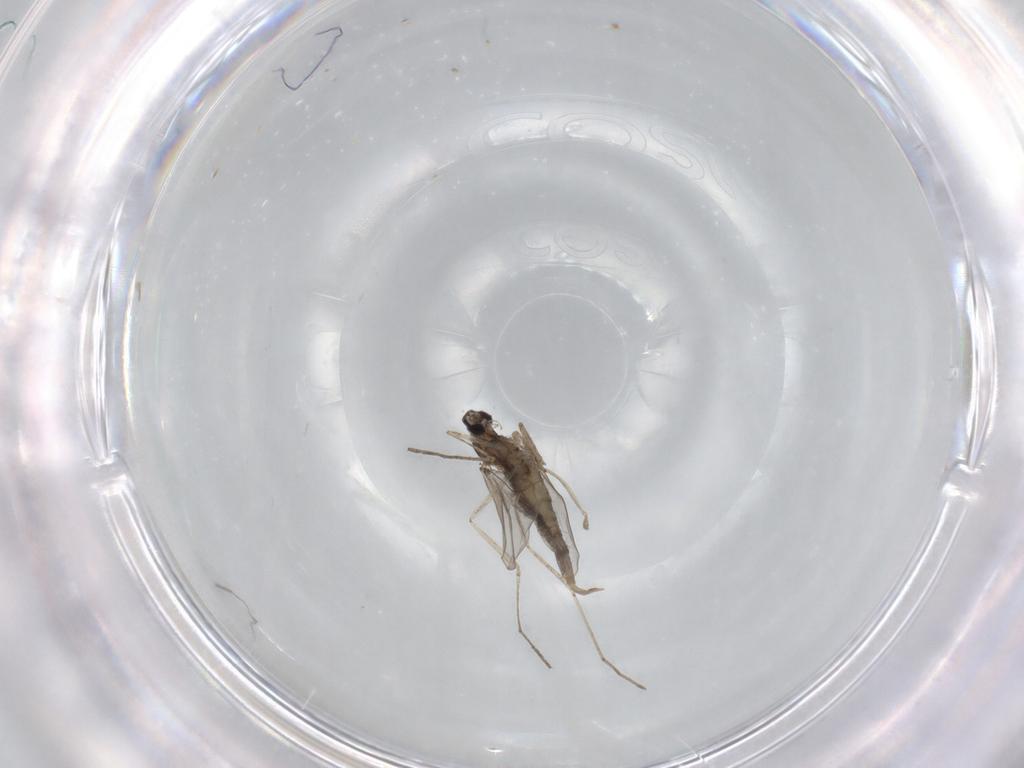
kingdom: Animalia
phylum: Arthropoda
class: Insecta
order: Diptera
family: Cecidomyiidae
